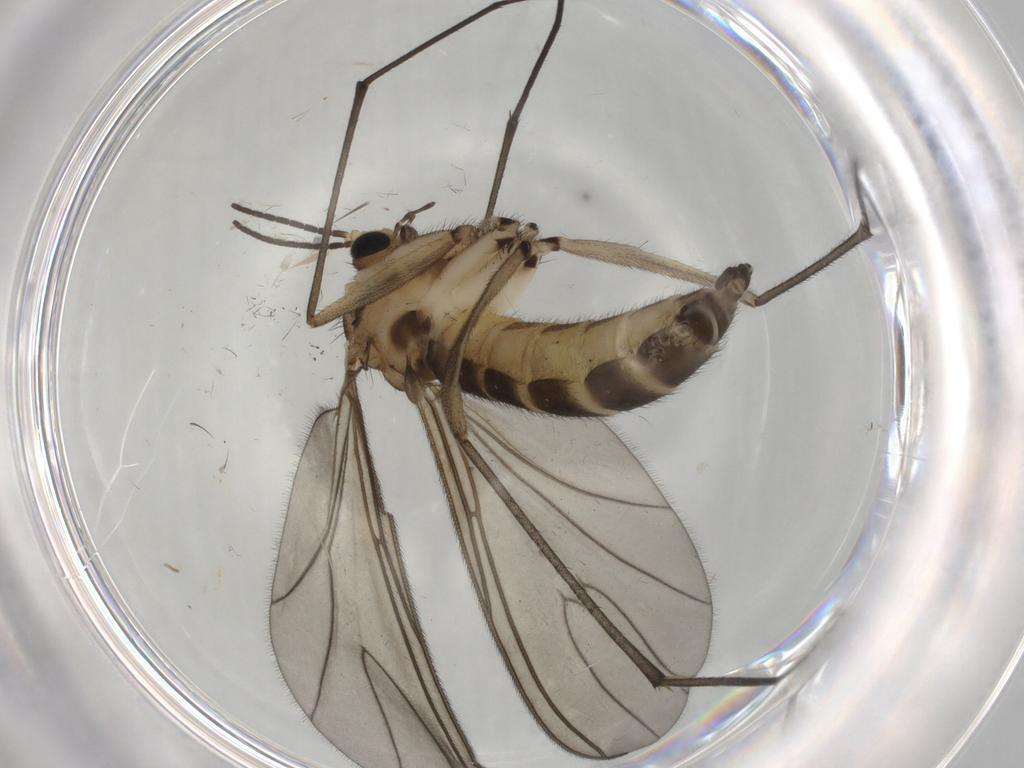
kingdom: Animalia
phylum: Arthropoda
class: Insecta
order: Diptera
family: Sciaridae
